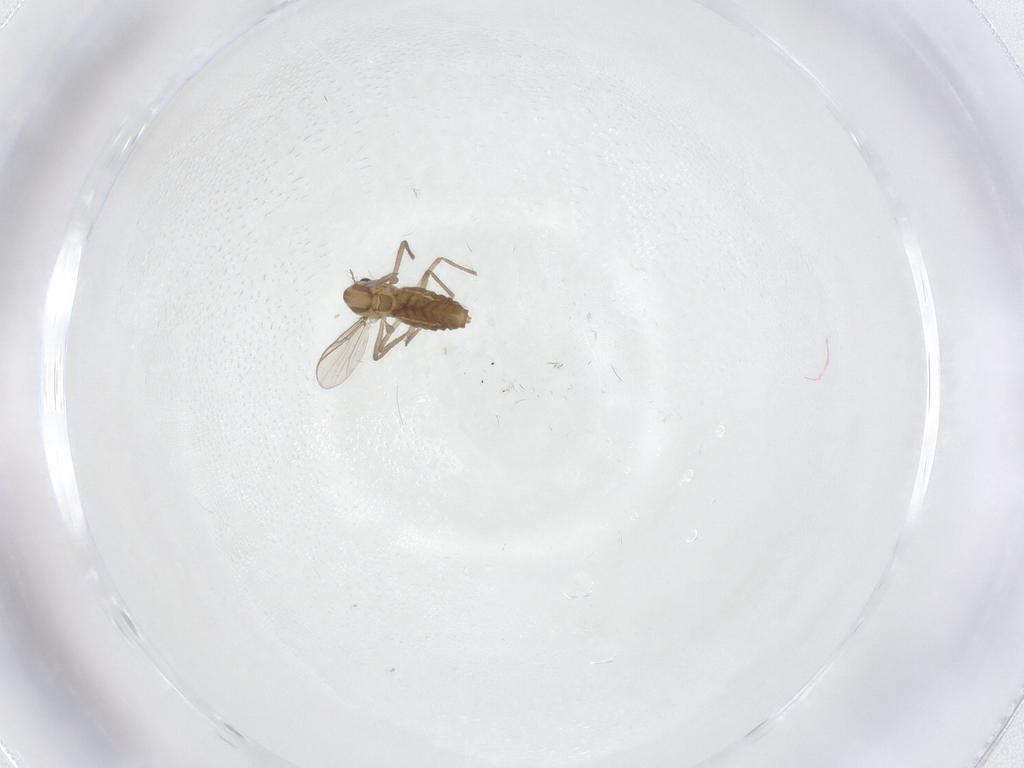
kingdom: Animalia
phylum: Arthropoda
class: Insecta
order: Diptera
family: Chironomidae
